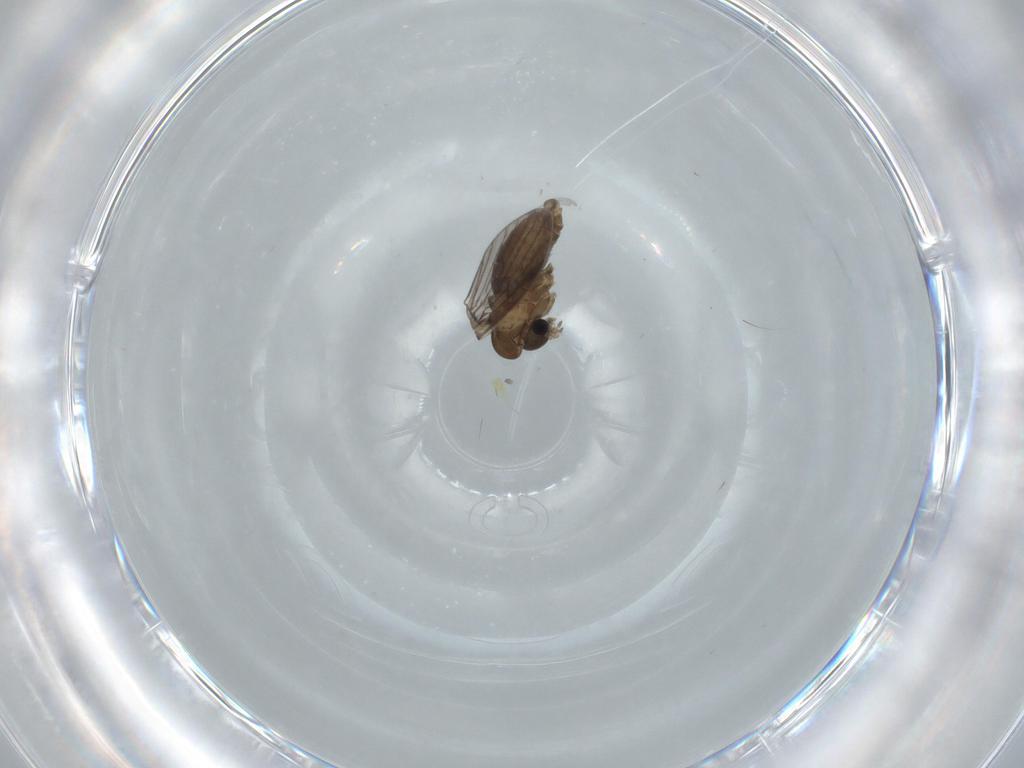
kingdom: Animalia
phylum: Arthropoda
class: Insecta
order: Diptera
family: Psychodidae
